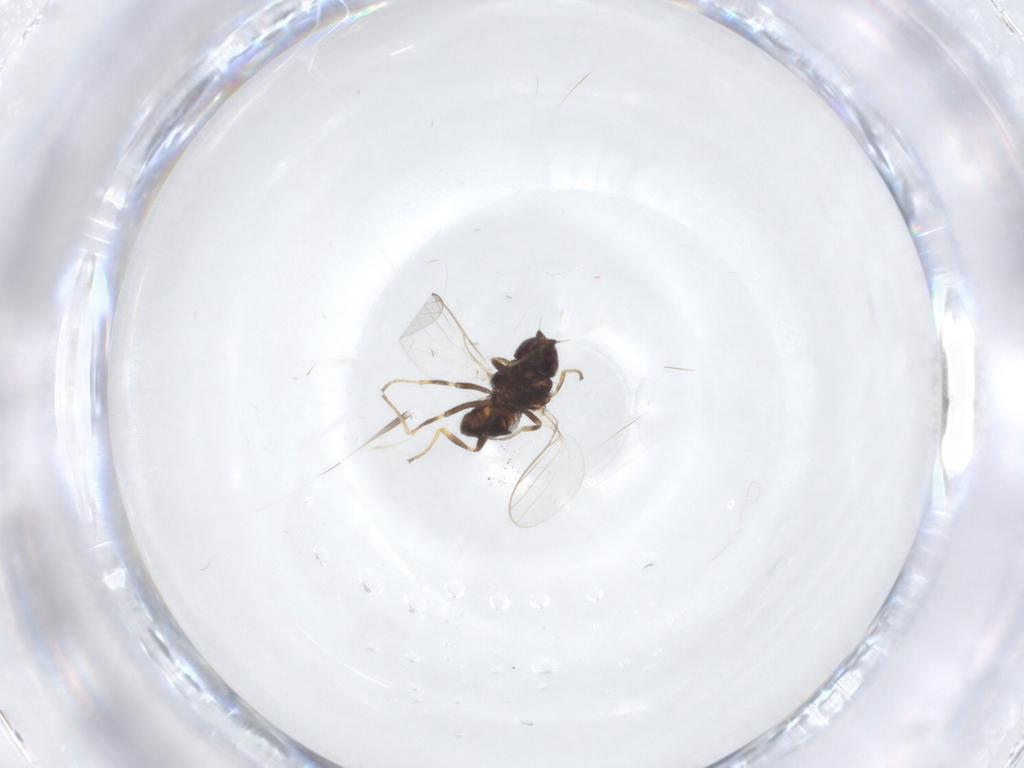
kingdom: Animalia
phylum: Arthropoda
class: Insecta
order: Diptera
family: Chloropidae
